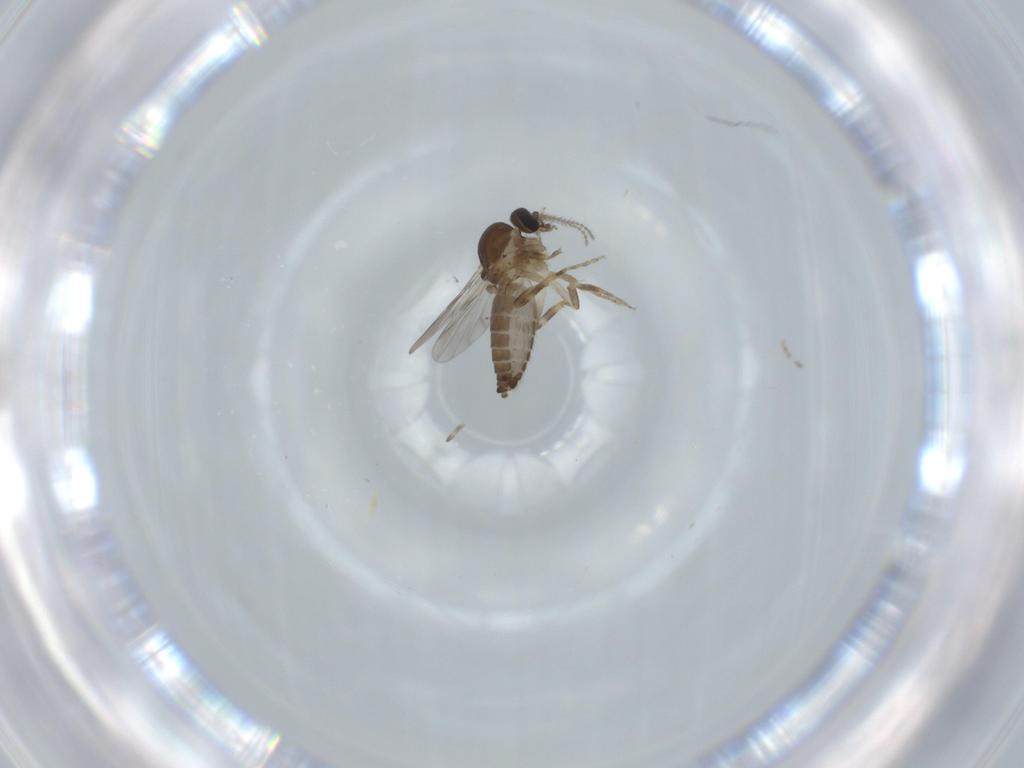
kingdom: Animalia
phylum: Arthropoda
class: Insecta
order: Diptera
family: Ceratopogonidae
